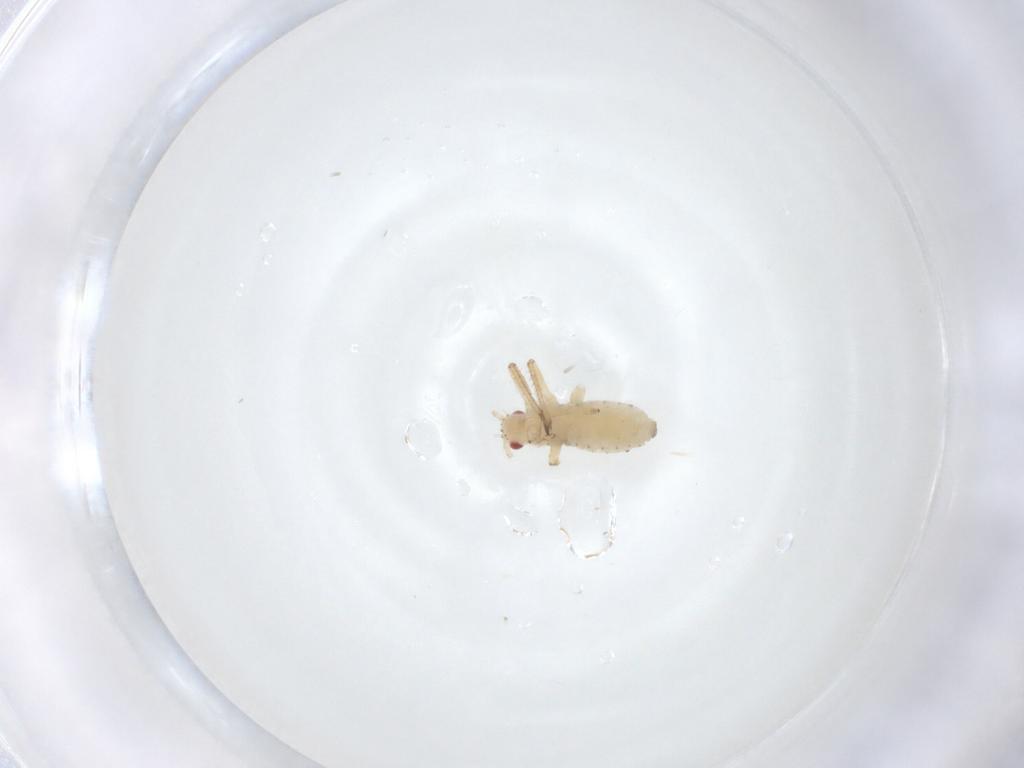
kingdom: Animalia
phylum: Arthropoda
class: Insecta
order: Hemiptera
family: Aphididae
